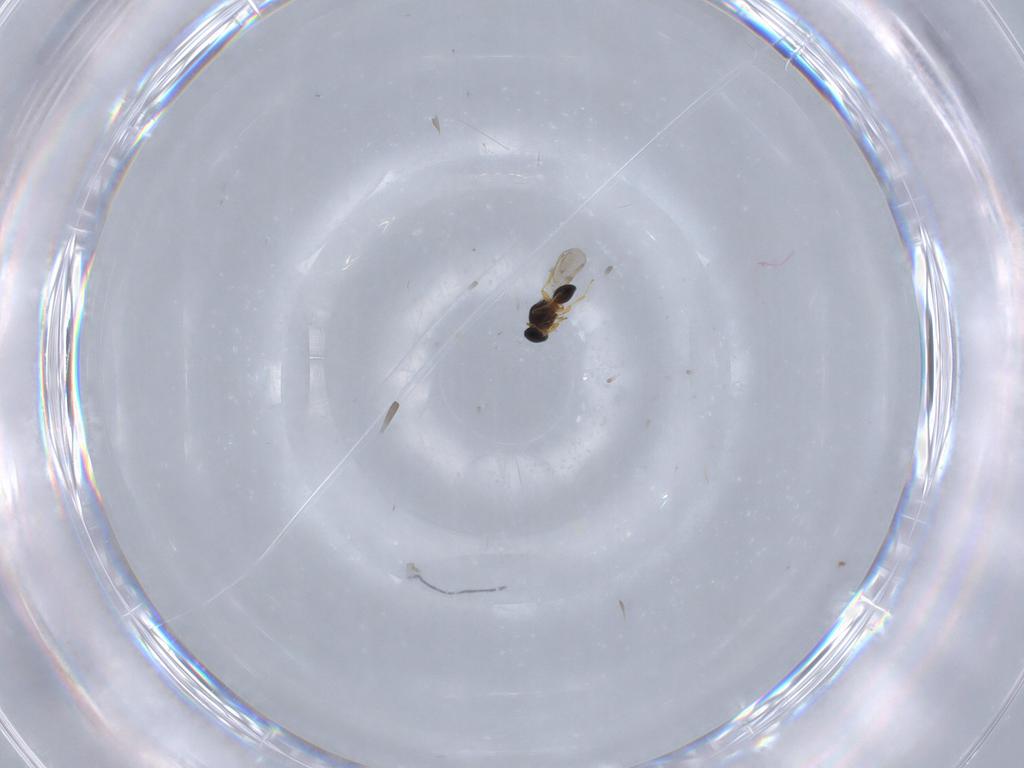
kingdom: Animalia
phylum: Arthropoda
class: Insecta
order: Hymenoptera
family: Platygastridae
